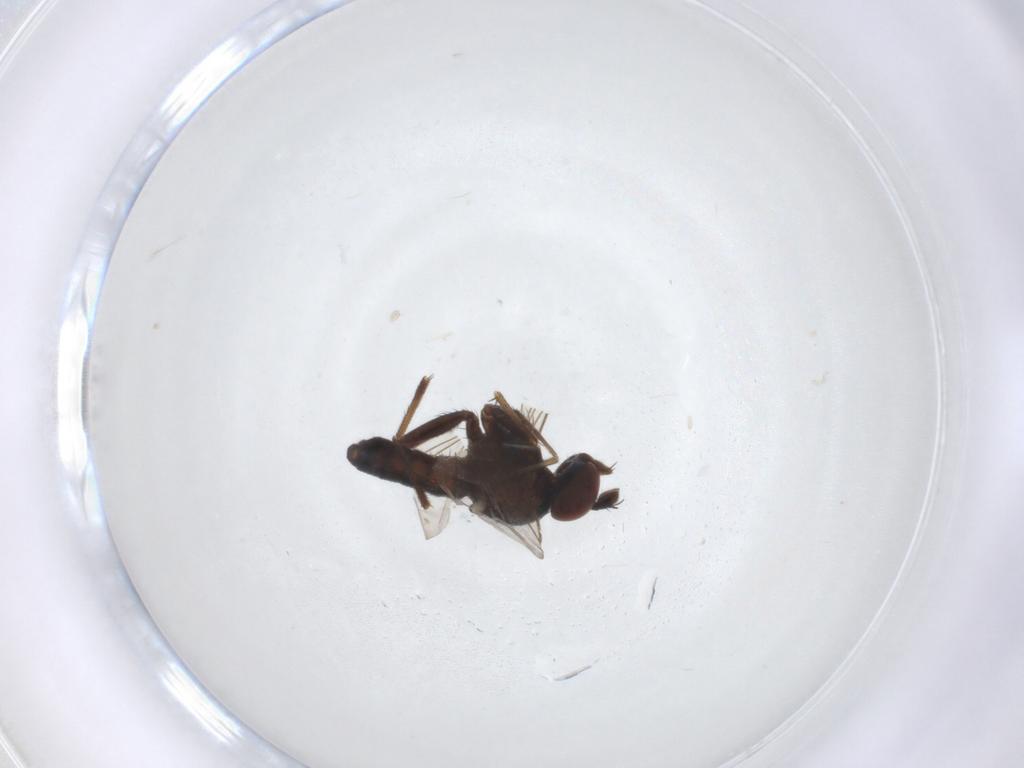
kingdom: Animalia
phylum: Arthropoda
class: Insecta
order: Diptera
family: Dolichopodidae
